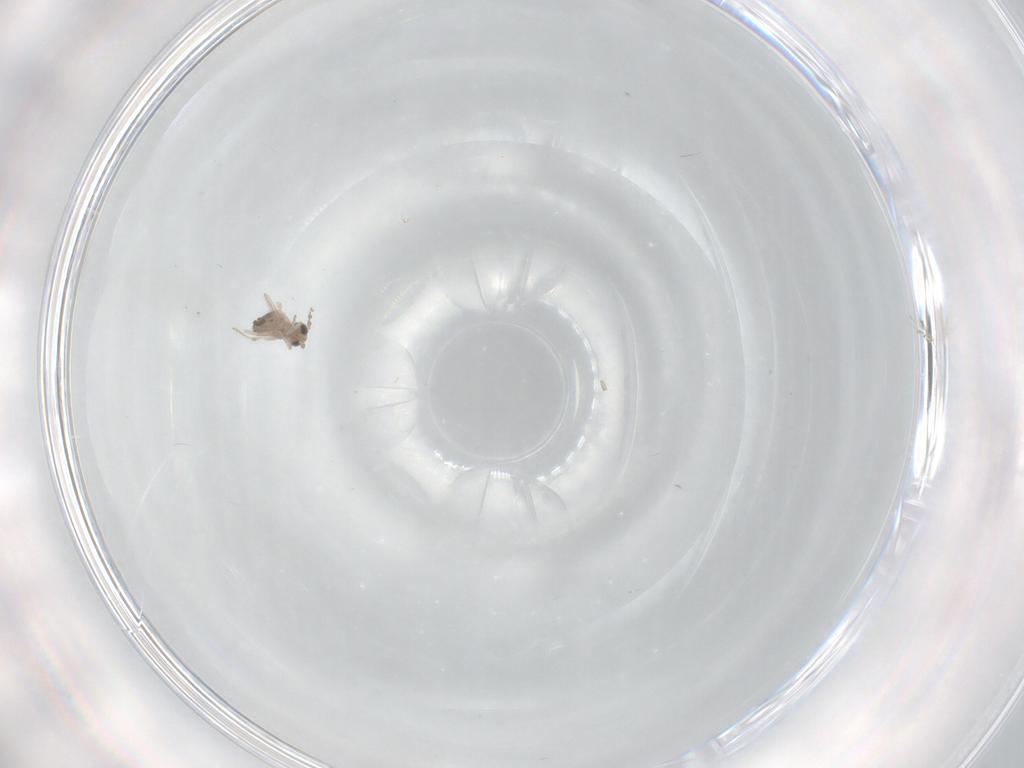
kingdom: Animalia
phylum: Arthropoda
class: Insecta
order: Diptera
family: Cecidomyiidae
